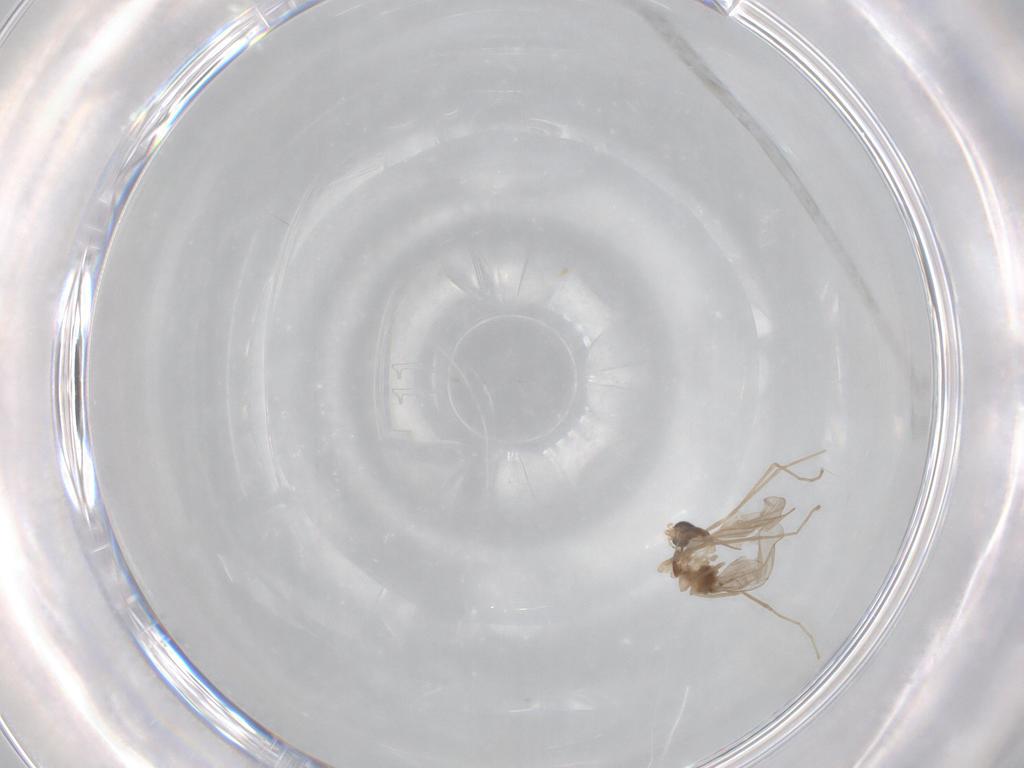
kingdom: Animalia
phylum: Arthropoda
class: Insecta
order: Diptera
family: Cecidomyiidae
